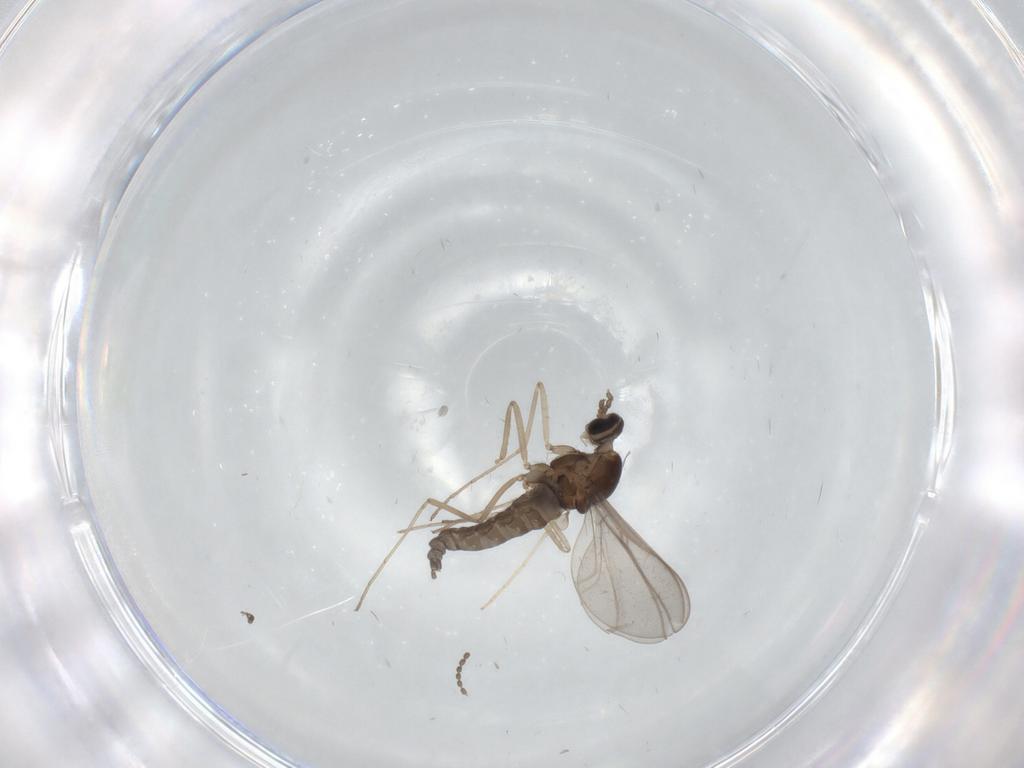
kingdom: Animalia
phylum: Arthropoda
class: Insecta
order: Diptera
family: Cecidomyiidae
